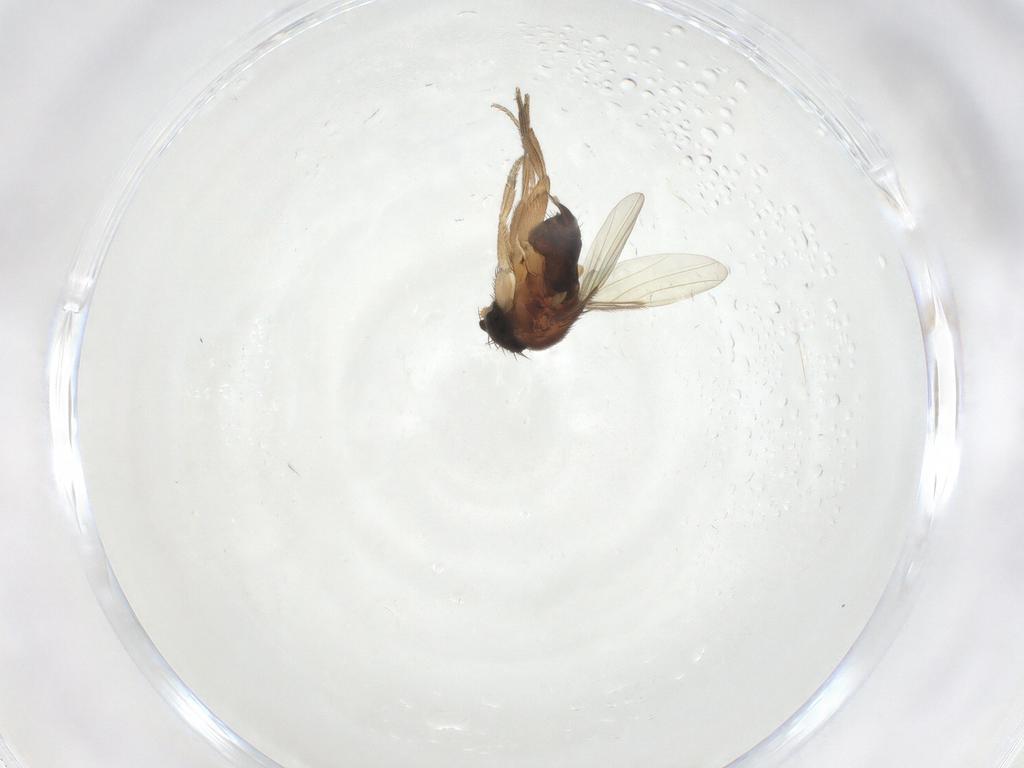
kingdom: Animalia
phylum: Arthropoda
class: Insecta
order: Diptera
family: Phoridae
